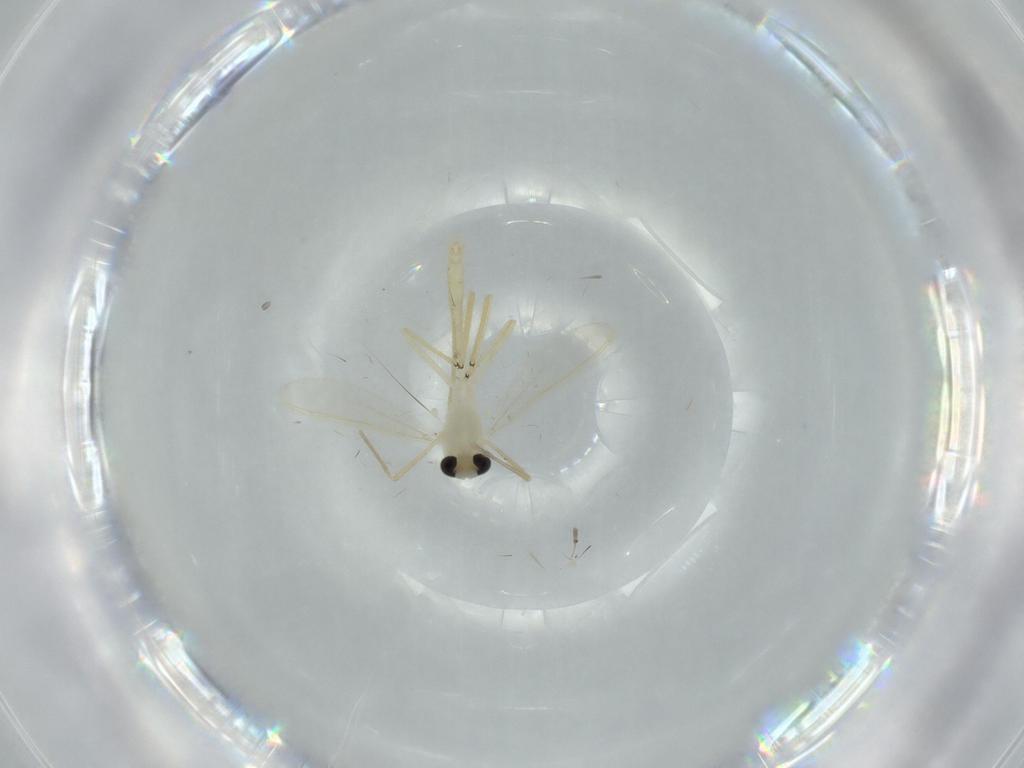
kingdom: Animalia
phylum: Arthropoda
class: Insecta
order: Diptera
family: Chironomidae
